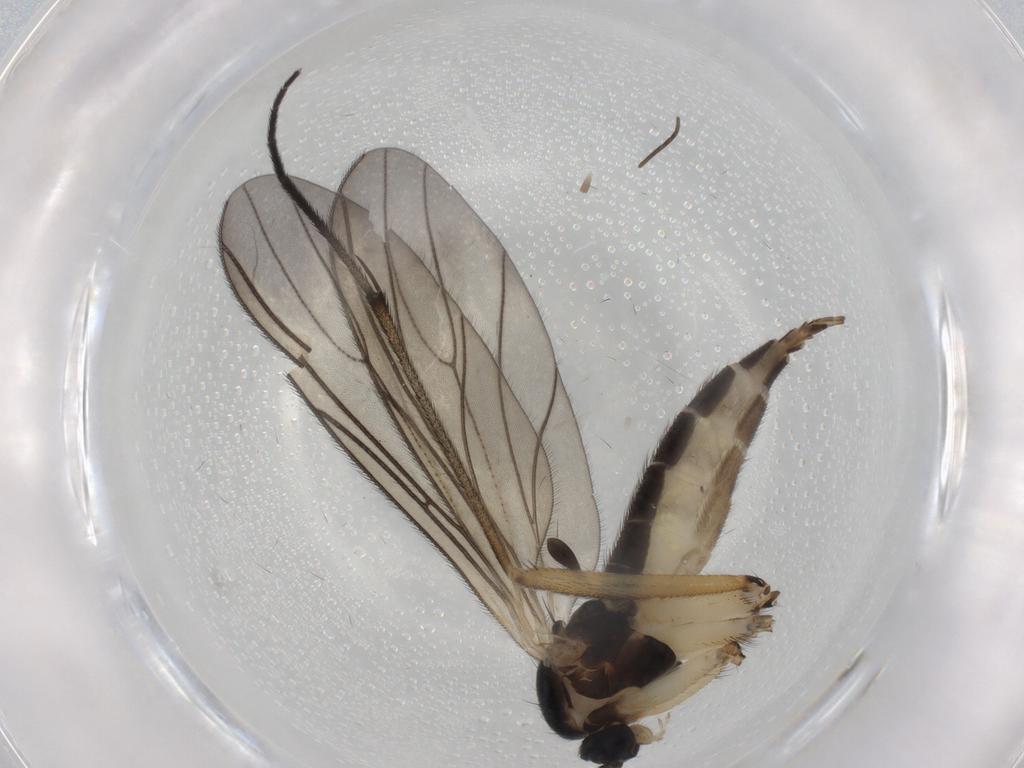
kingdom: Animalia
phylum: Arthropoda
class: Insecta
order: Diptera
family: Sciaridae
